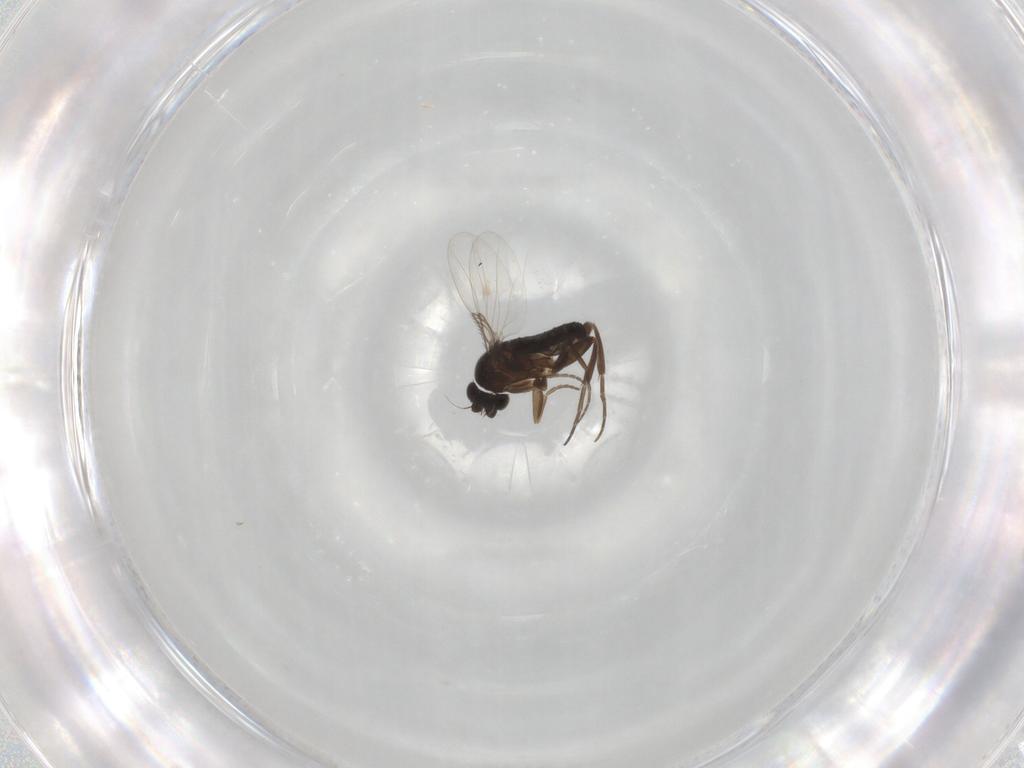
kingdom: Animalia
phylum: Arthropoda
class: Insecta
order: Diptera
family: Phoridae
